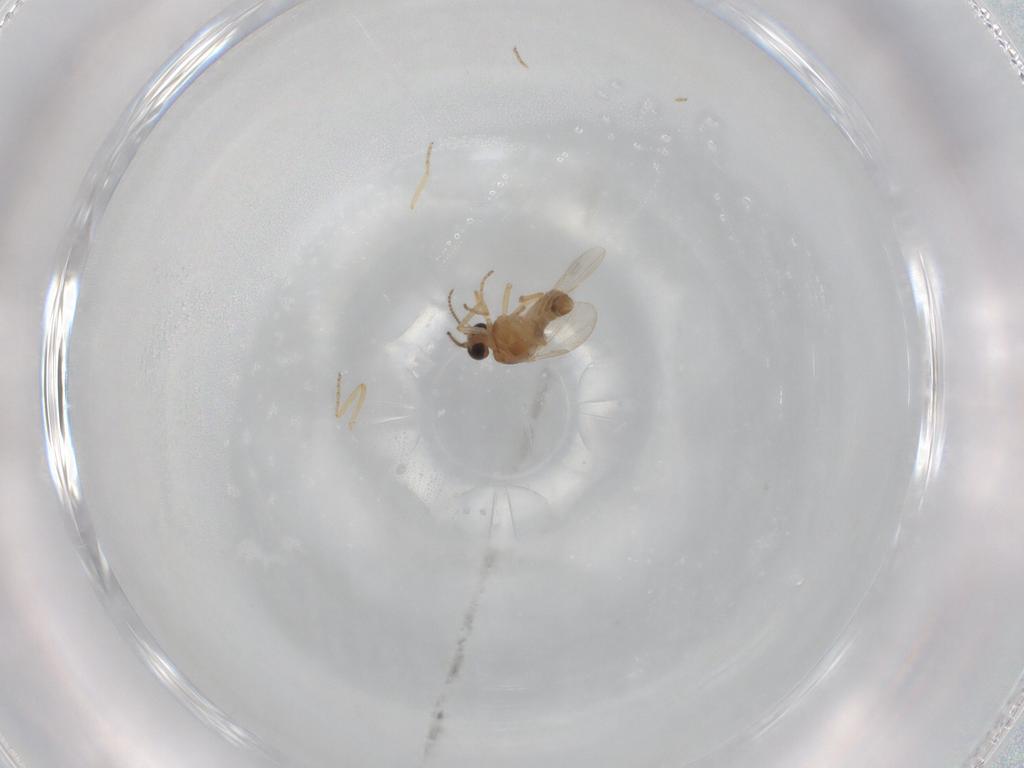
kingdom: Animalia
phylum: Arthropoda
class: Insecta
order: Diptera
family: Ceratopogonidae
